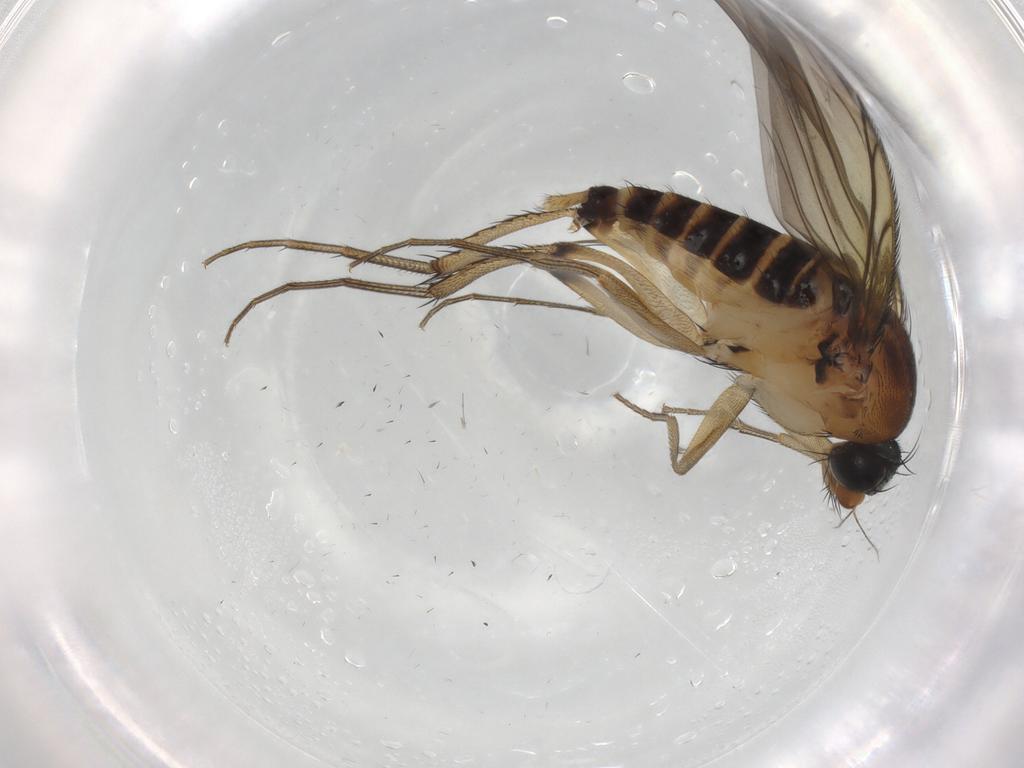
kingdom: Animalia
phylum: Arthropoda
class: Insecta
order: Diptera
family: Phoridae
